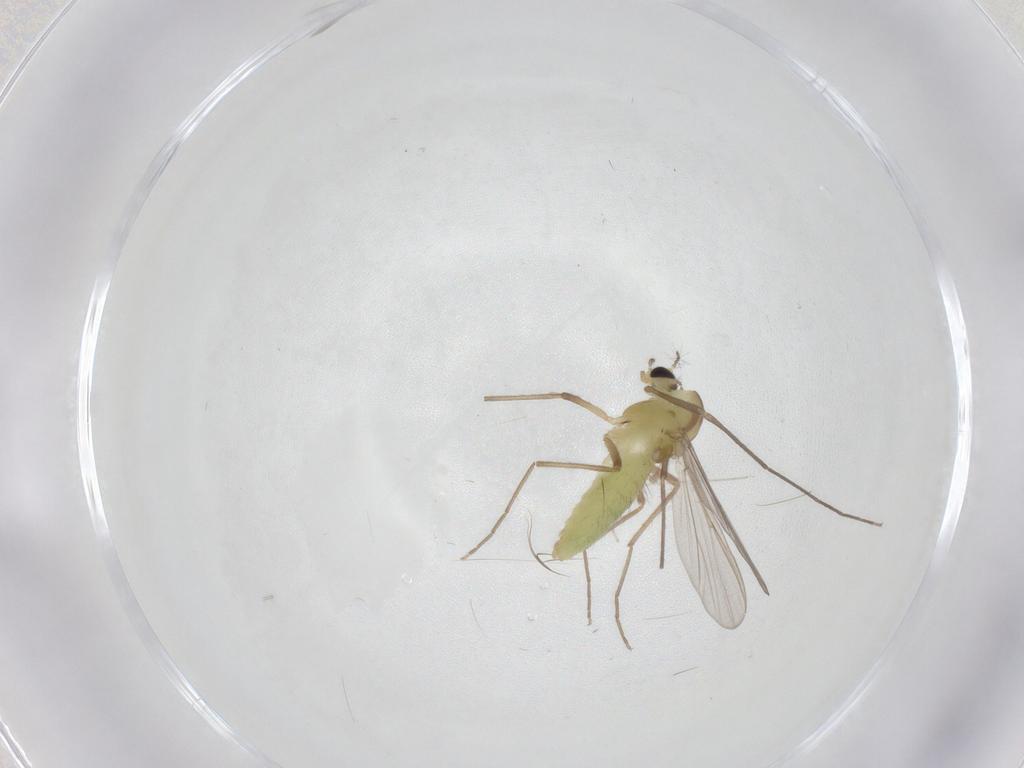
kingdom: Animalia
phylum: Arthropoda
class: Insecta
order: Diptera
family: Chironomidae
